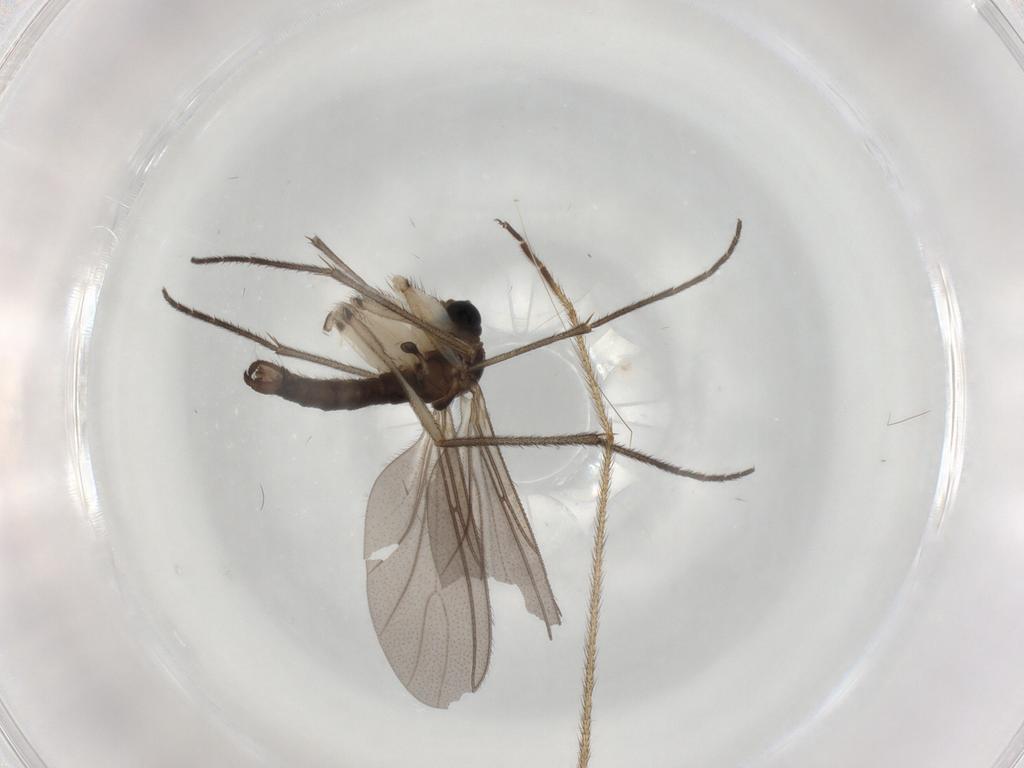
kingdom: Animalia
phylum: Arthropoda
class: Insecta
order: Diptera
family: Sciaridae
